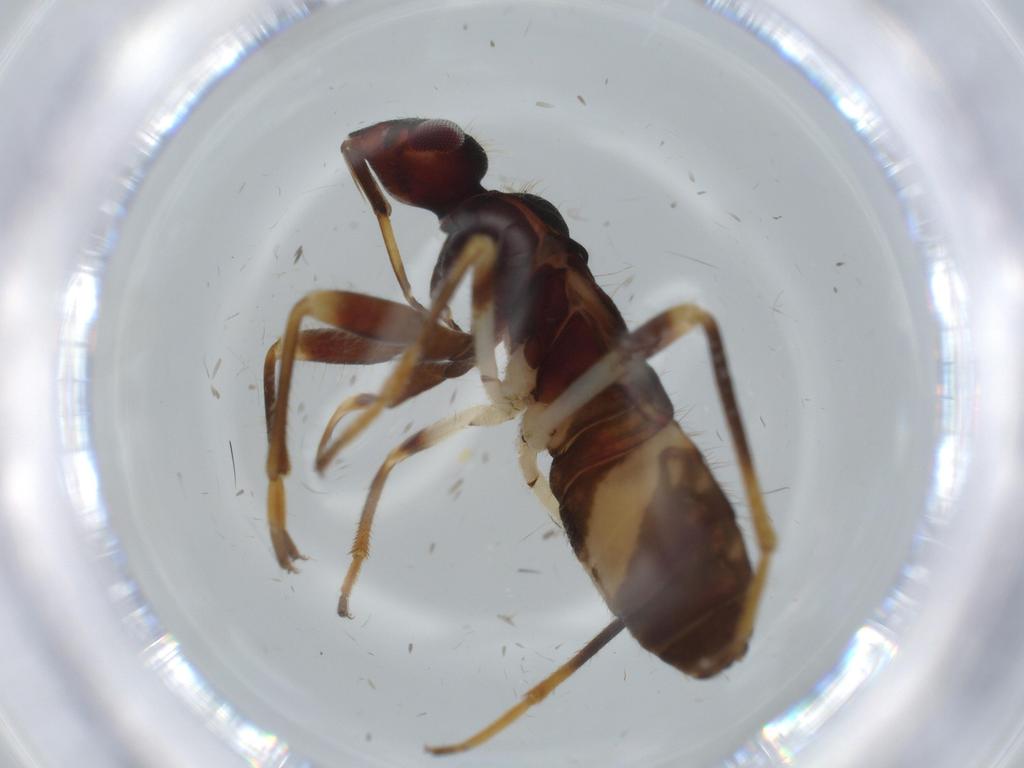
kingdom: Animalia
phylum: Arthropoda
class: Insecta
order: Hemiptera
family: Rhyparochromidae
